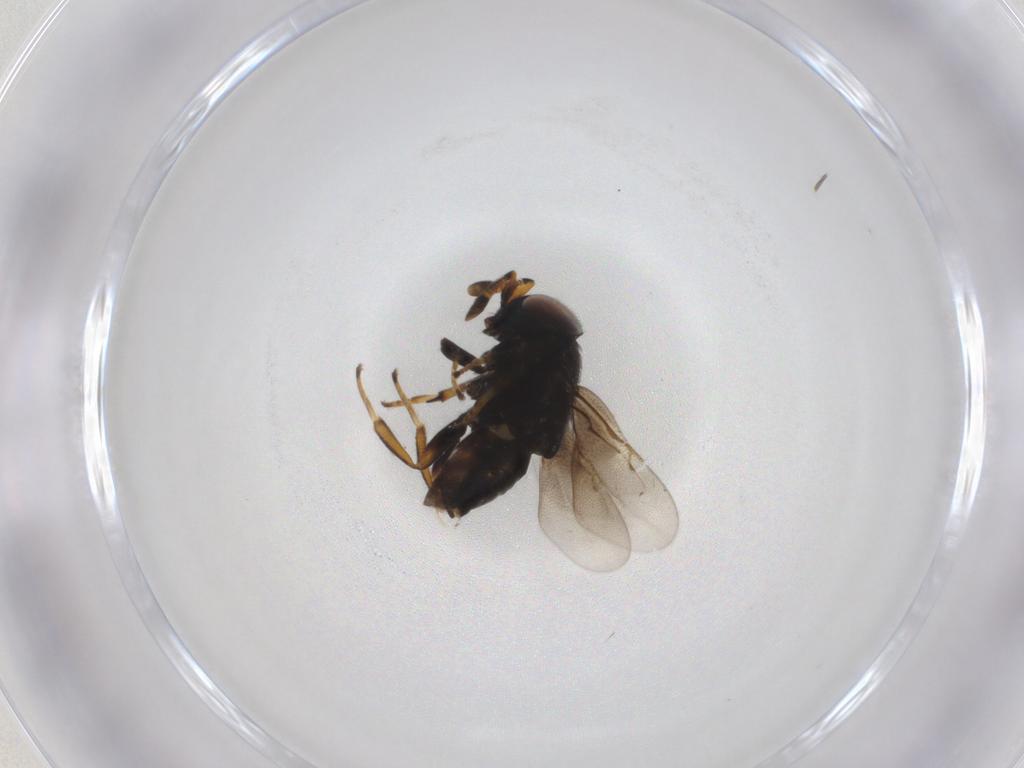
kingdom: Animalia
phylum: Arthropoda
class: Insecta
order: Hymenoptera
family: Encyrtidae
